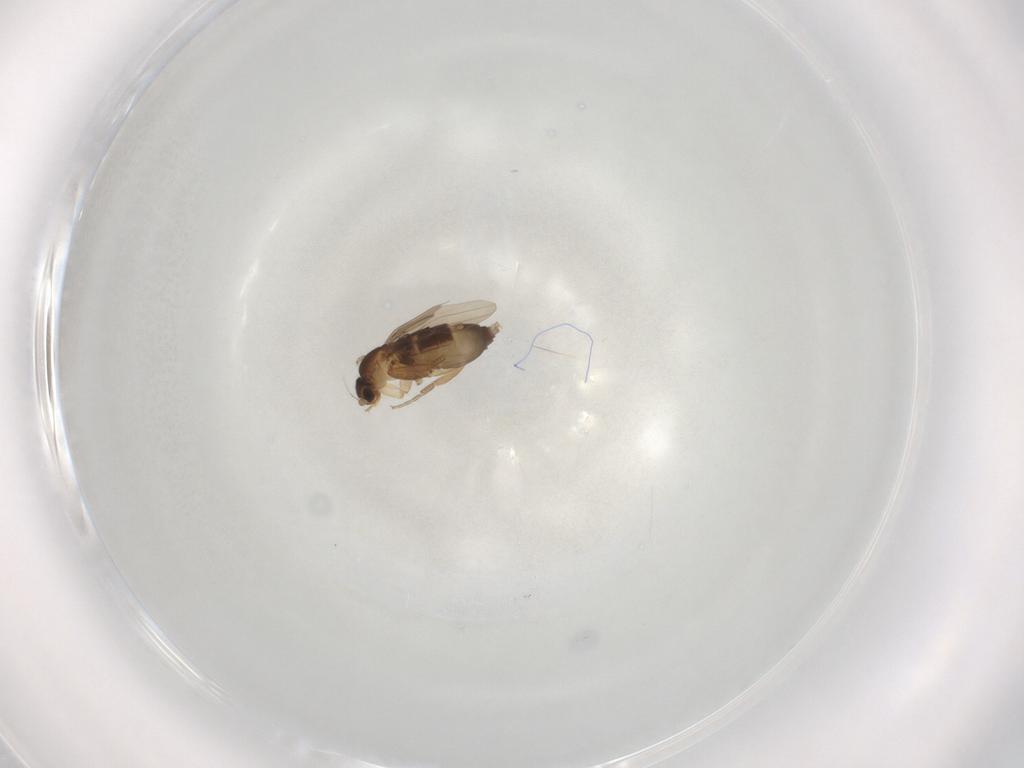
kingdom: Animalia
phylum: Arthropoda
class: Insecta
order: Diptera
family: Phoridae
